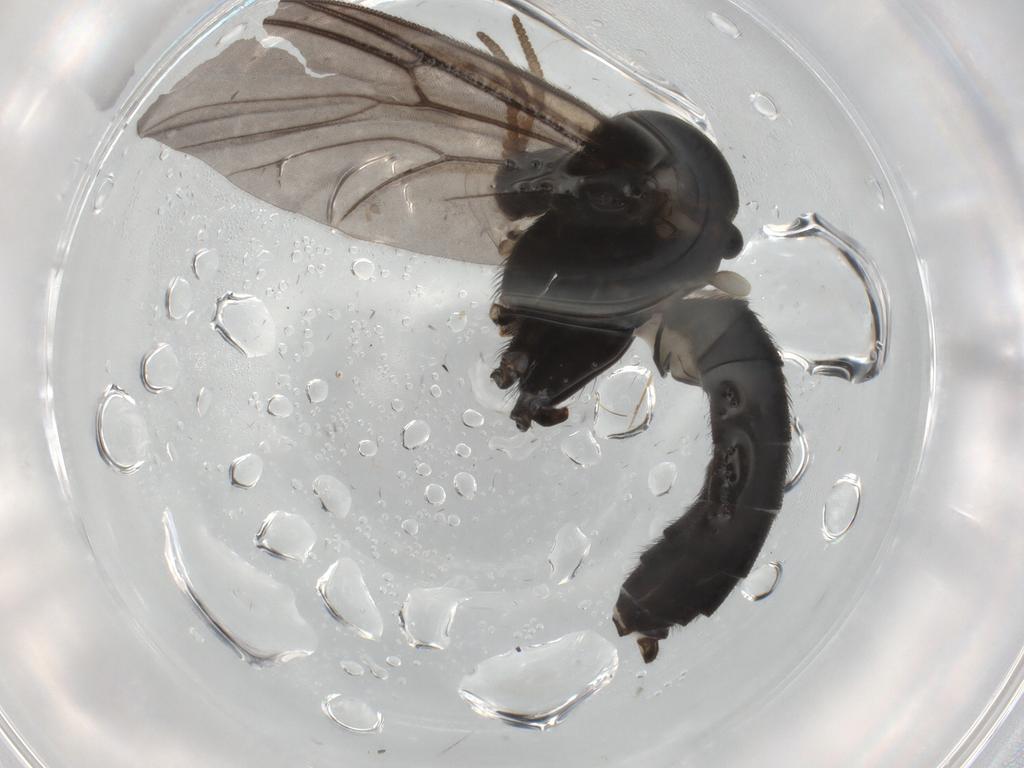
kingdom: Animalia
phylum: Arthropoda
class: Insecta
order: Diptera
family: Mycetophilidae
